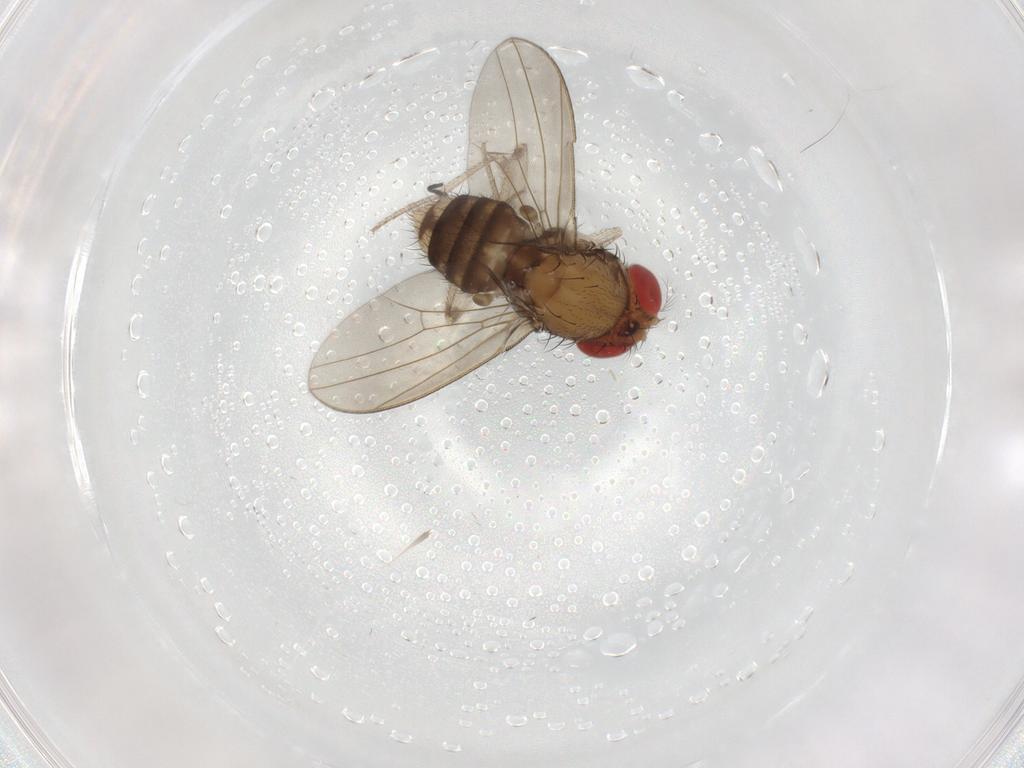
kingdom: Animalia
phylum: Arthropoda
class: Insecta
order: Diptera
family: Drosophilidae
